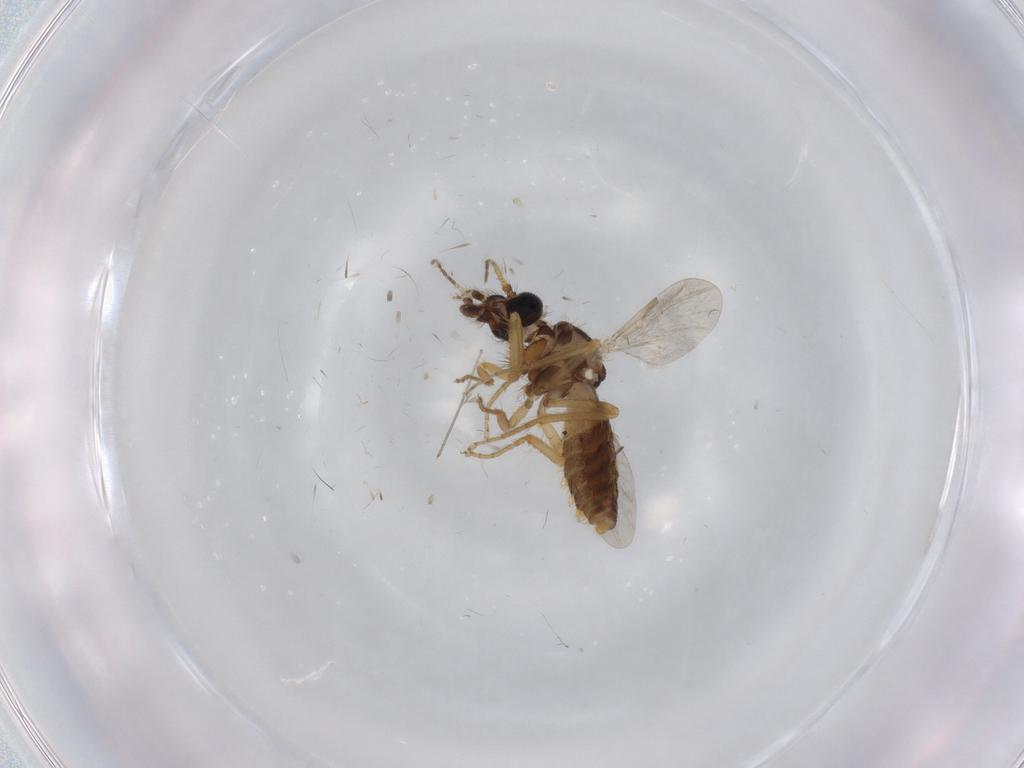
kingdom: Animalia
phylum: Arthropoda
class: Insecta
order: Diptera
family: Ceratopogonidae
